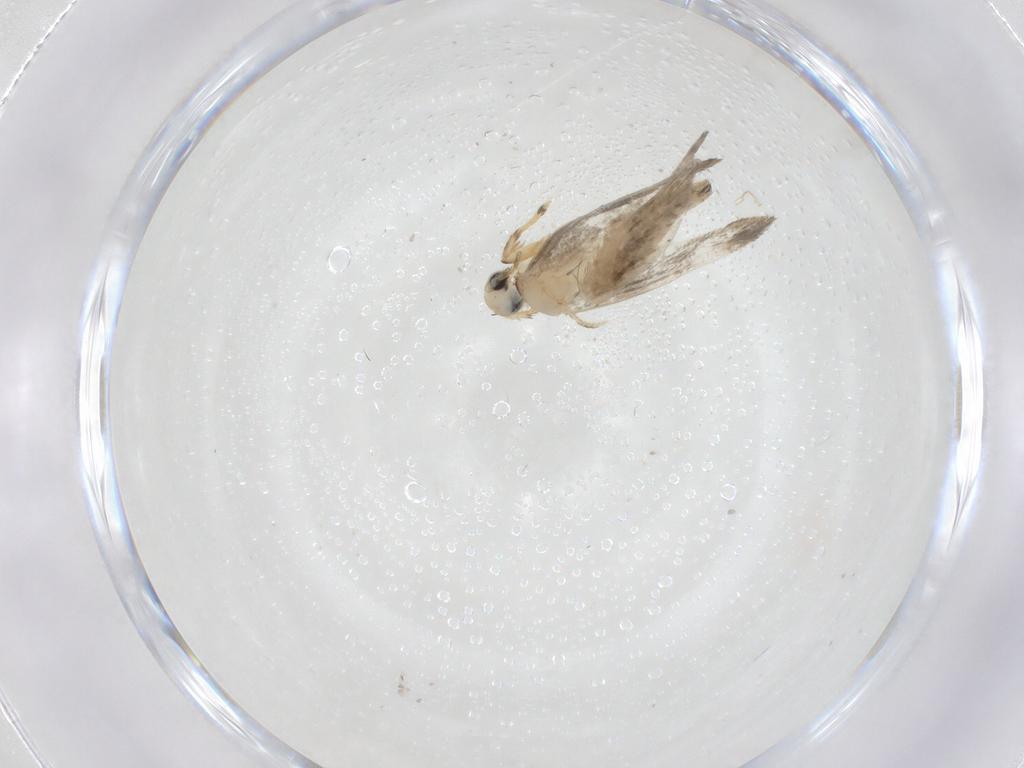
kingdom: Animalia
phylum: Arthropoda
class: Insecta
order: Lepidoptera
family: Psychidae
